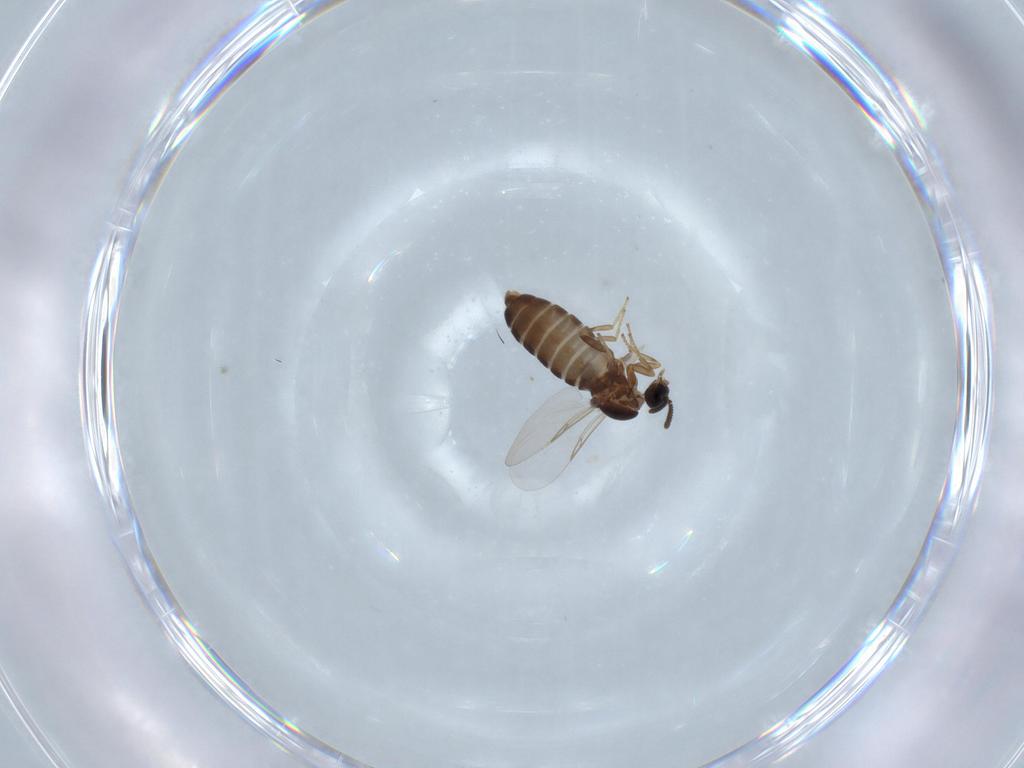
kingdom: Animalia
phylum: Arthropoda
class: Insecta
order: Diptera
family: Scatopsidae
